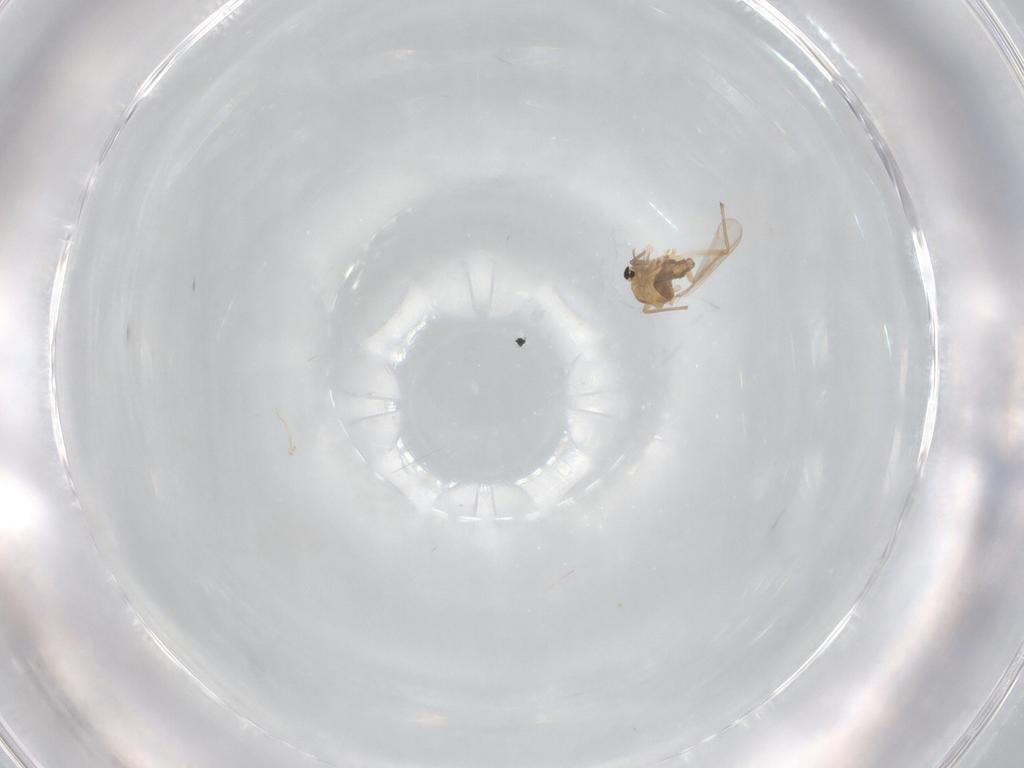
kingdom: Animalia
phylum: Arthropoda
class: Insecta
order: Diptera
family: Chironomidae
